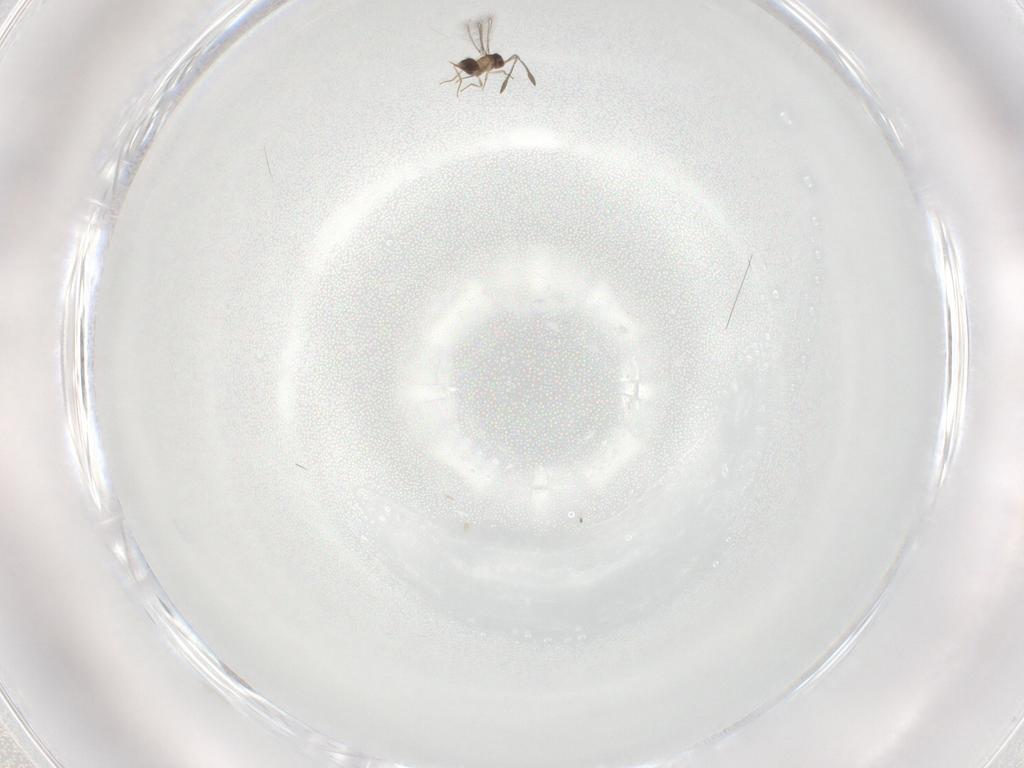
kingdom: Animalia
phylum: Arthropoda
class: Insecta
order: Hymenoptera
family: Mymaridae
